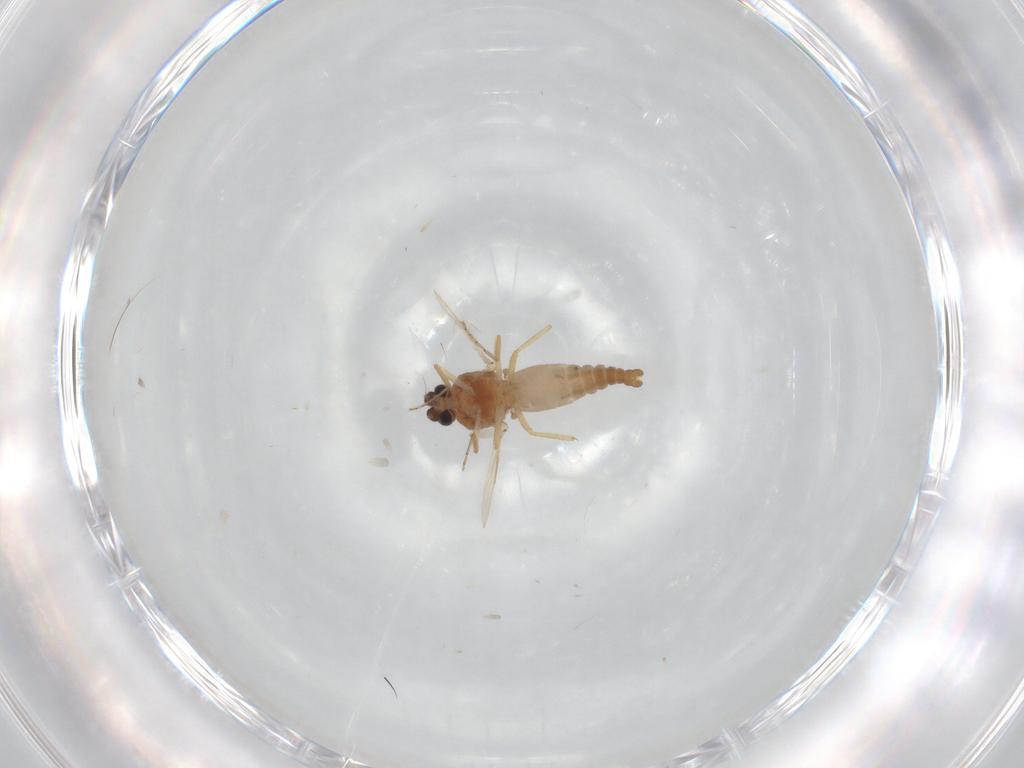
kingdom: Animalia
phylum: Arthropoda
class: Insecta
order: Diptera
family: Ceratopogonidae
